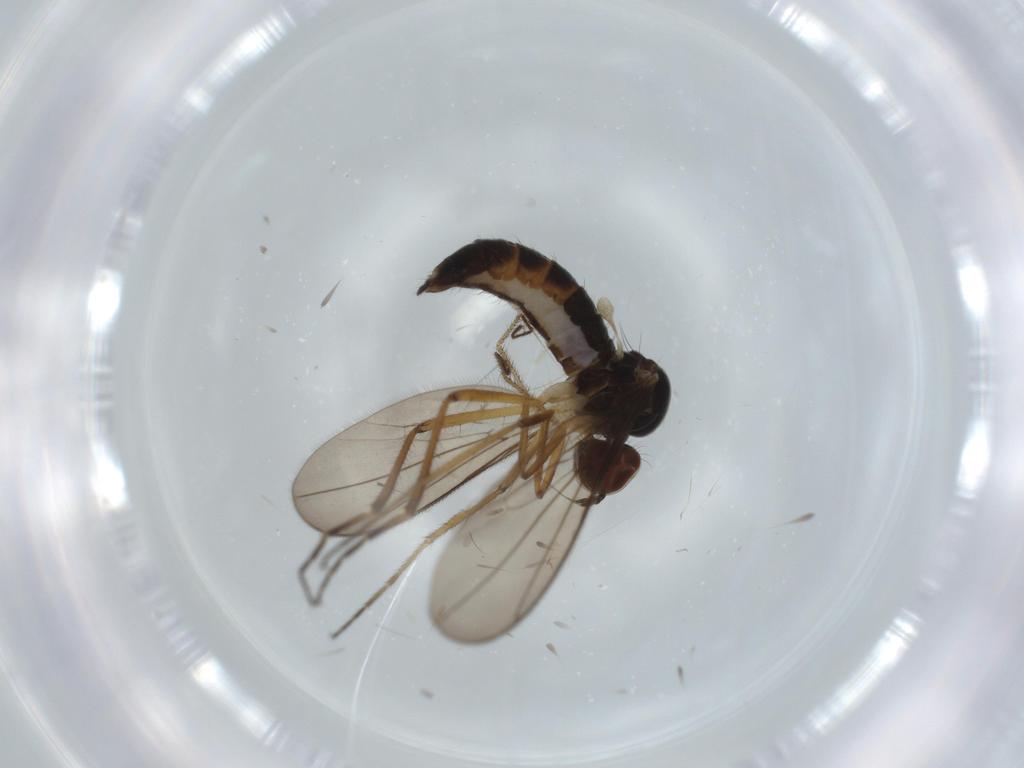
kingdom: Animalia
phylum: Arthropoda
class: Insecta
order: Diptera
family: Hybotidae
